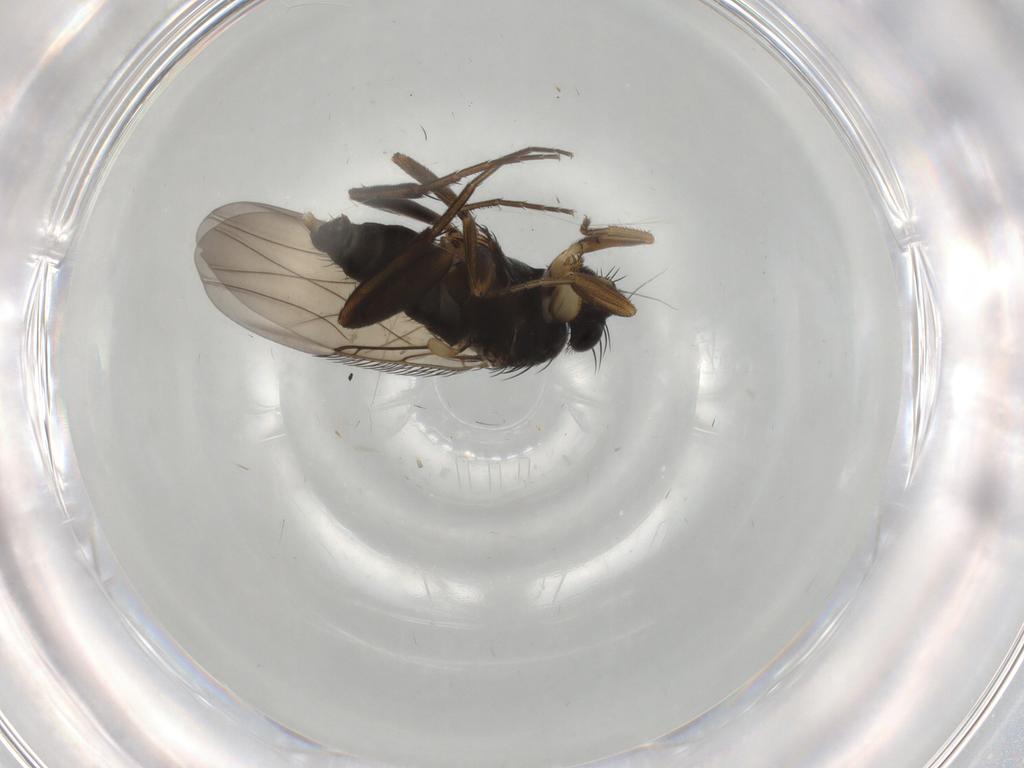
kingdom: Animalia
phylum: Arthropoda
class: Insecta
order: Diptera
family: Phoridae
